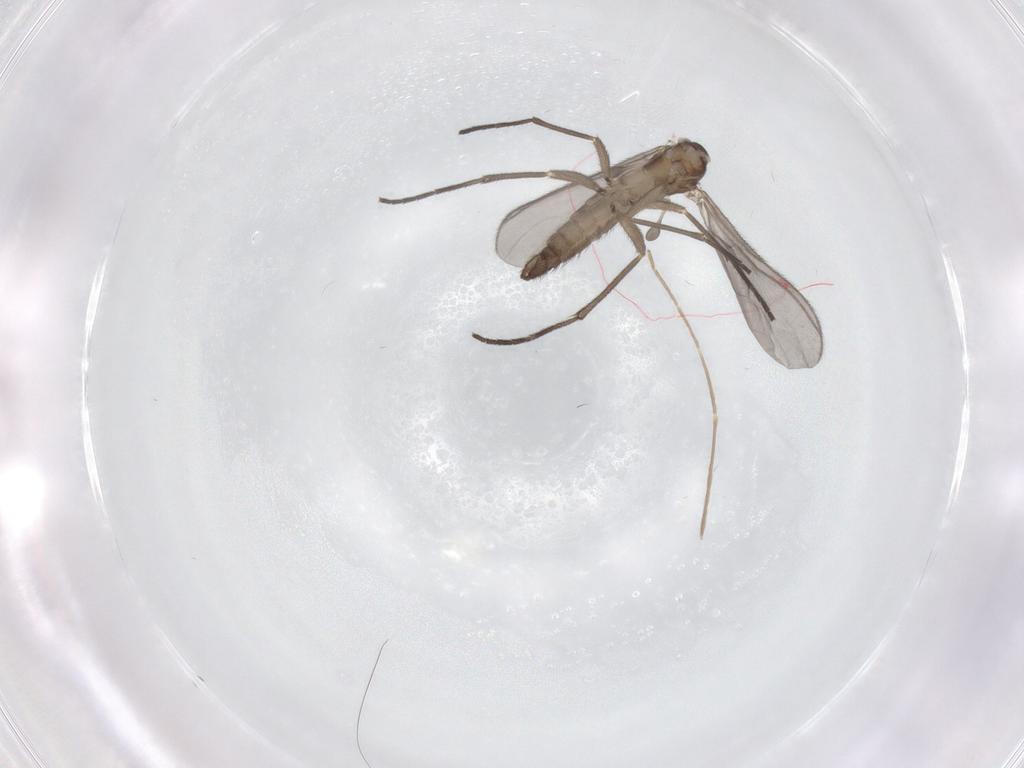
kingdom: Animalia
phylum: Arthropoda
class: Insecta
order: Diptera
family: Sciaridae
